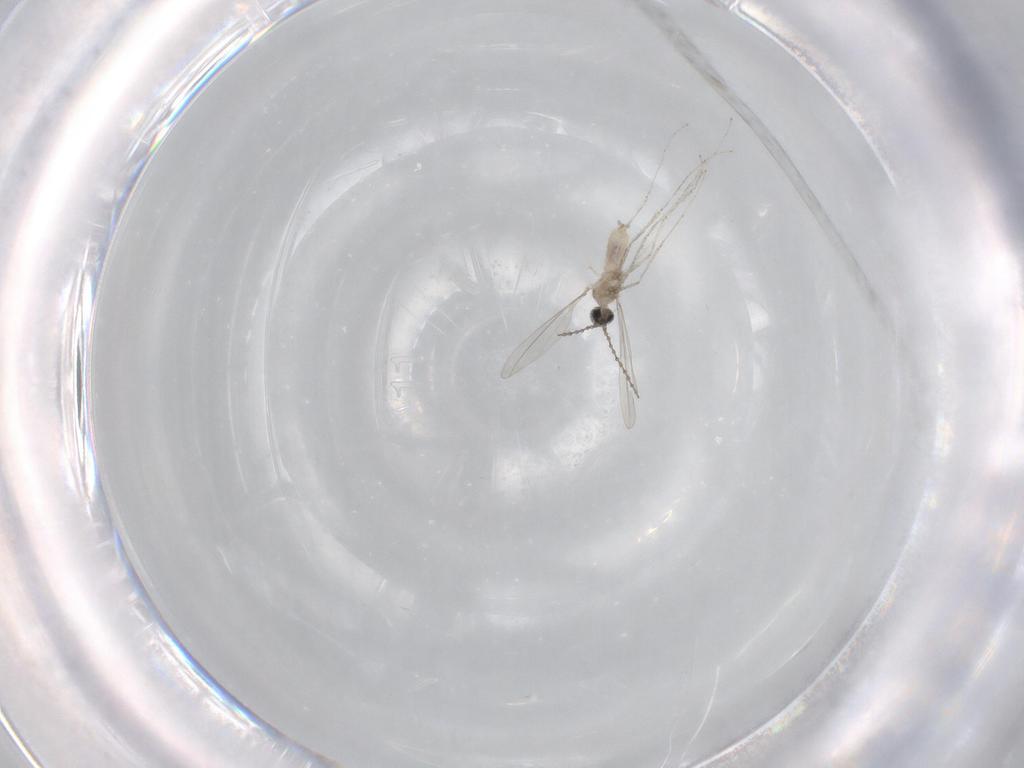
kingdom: Animalia
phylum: Arthropoda
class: Insecta
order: Diptera
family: Cecidomyiidae
